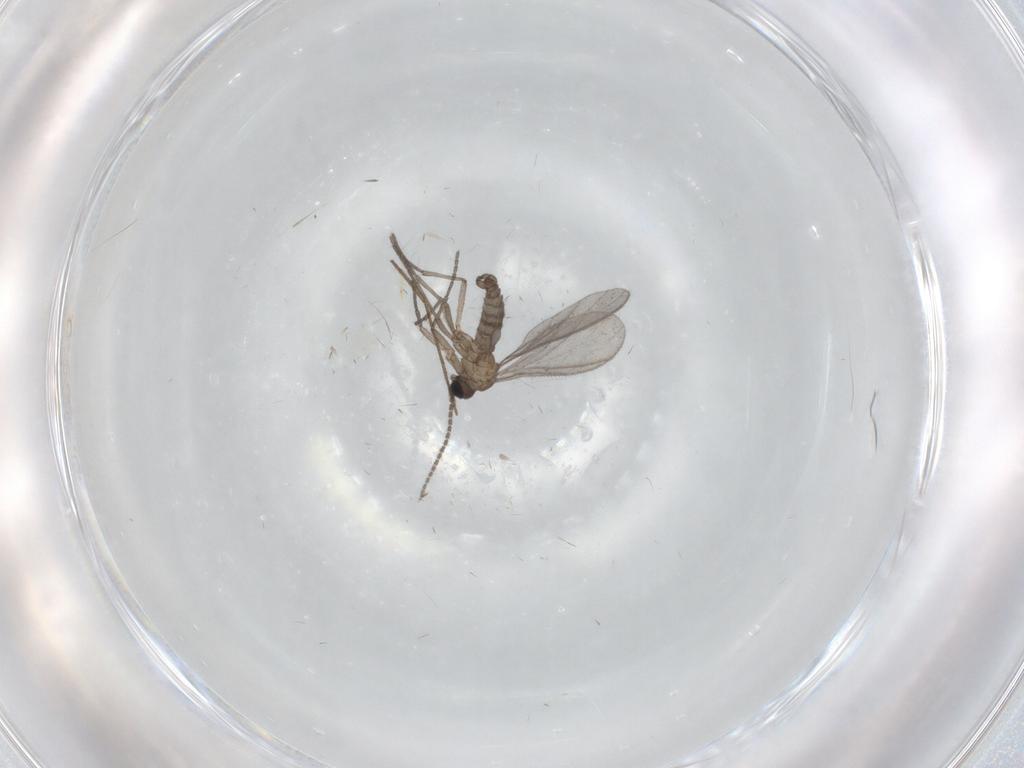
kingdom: Animalia
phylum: Arthropoda
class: Insecta
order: Diptera
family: Sciaridae
